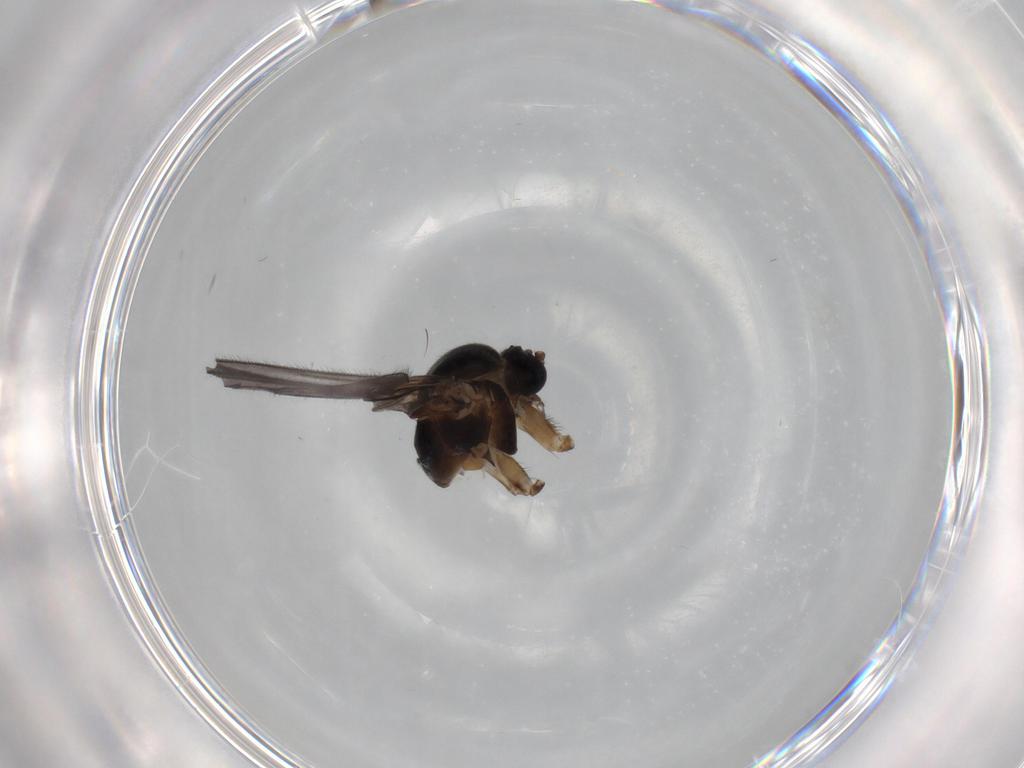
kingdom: Animalia
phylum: Arthropoda
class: Insecta
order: Diptera
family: Sciaridae
